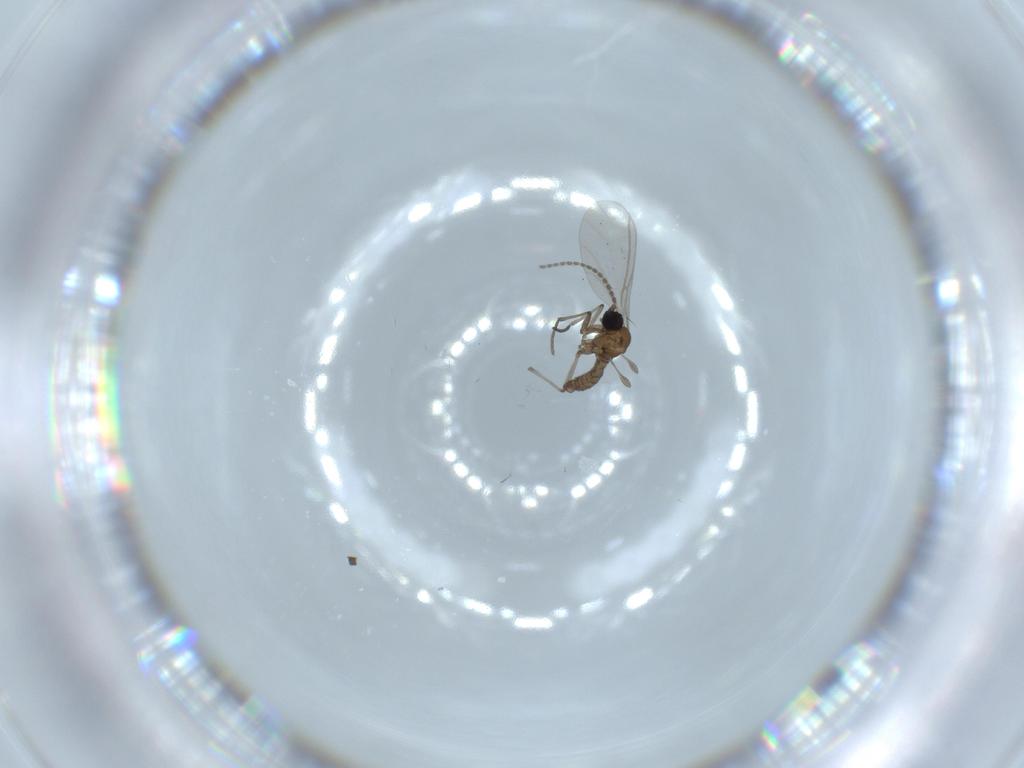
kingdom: Animalia
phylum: Arthropoda
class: Insecta
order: Diptera
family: Sciaridae
